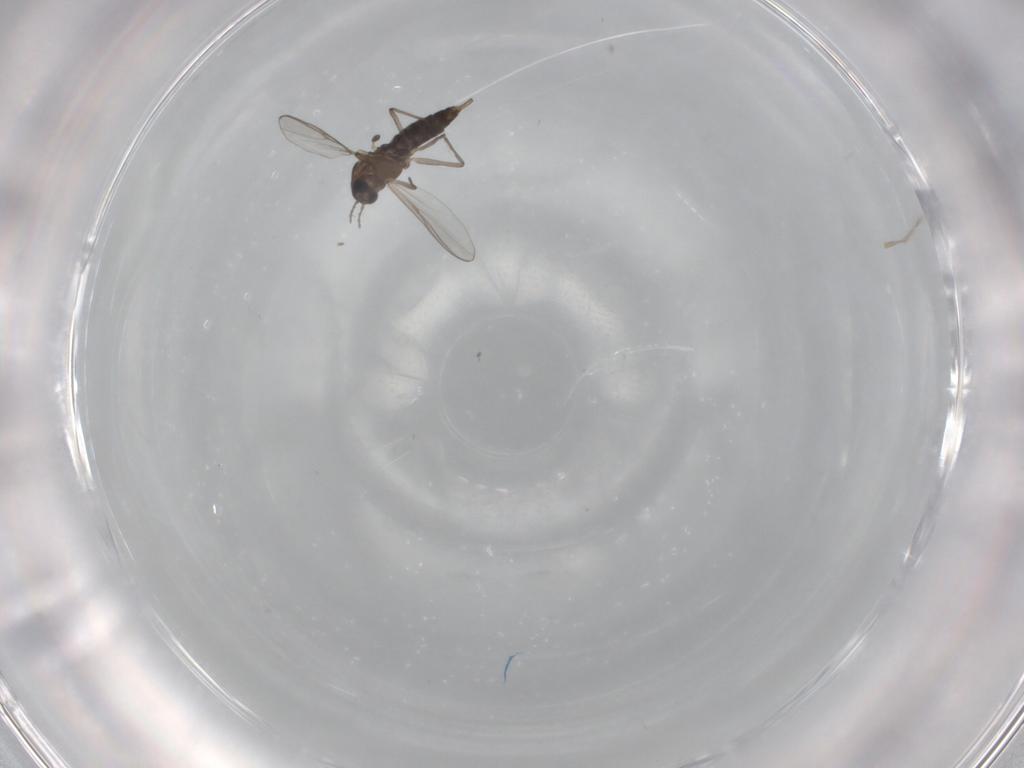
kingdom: Animalia
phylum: Arthropoda
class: Insecta
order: Diptera
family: Chironomidae
